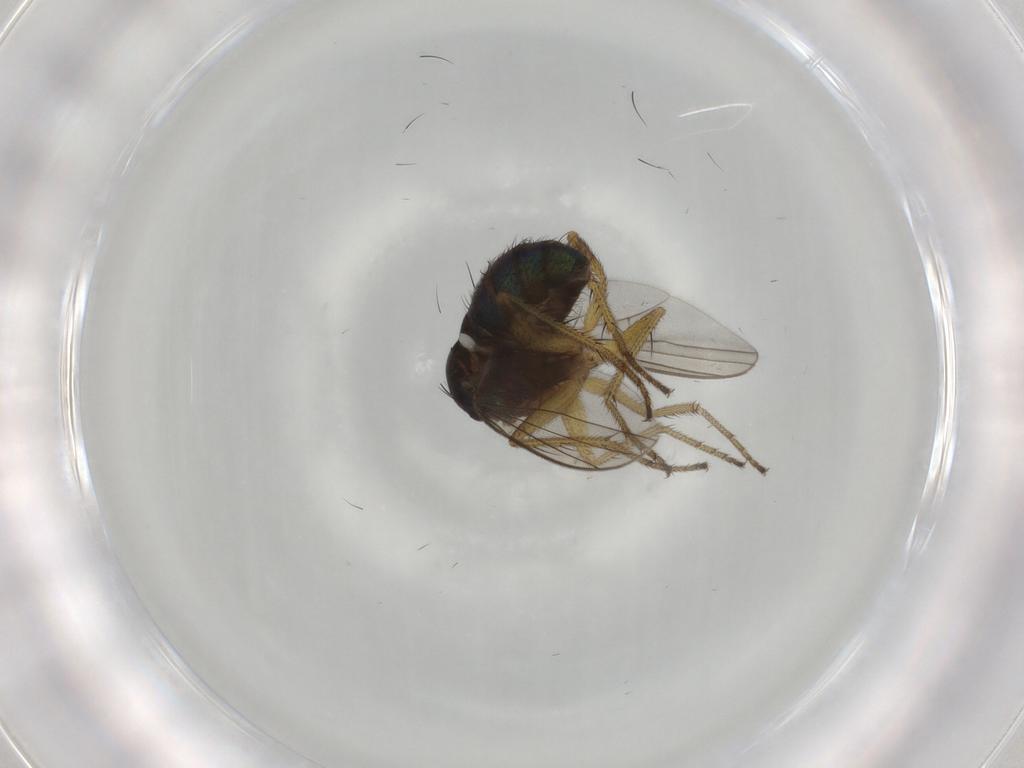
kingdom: Animalia
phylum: Arthropoda
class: Insecta
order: Diptera
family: Dolichopodidae
